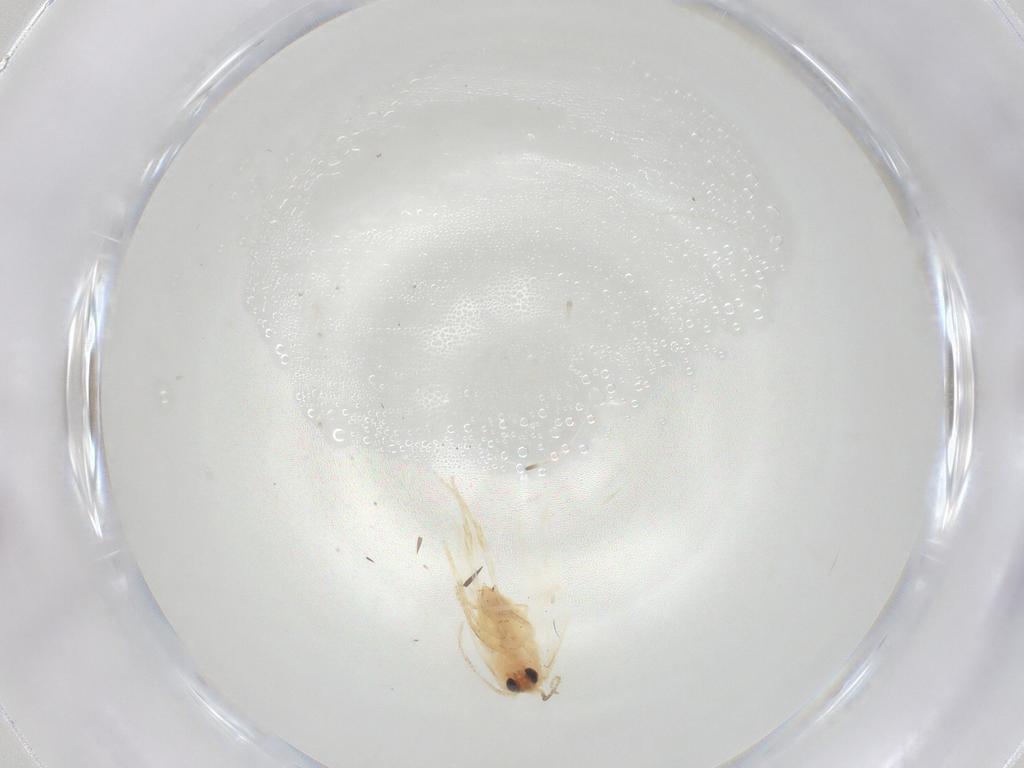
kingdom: Animalia
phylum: Arthropoda
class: Insecta
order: Lepidoptera
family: Nepticulidae
